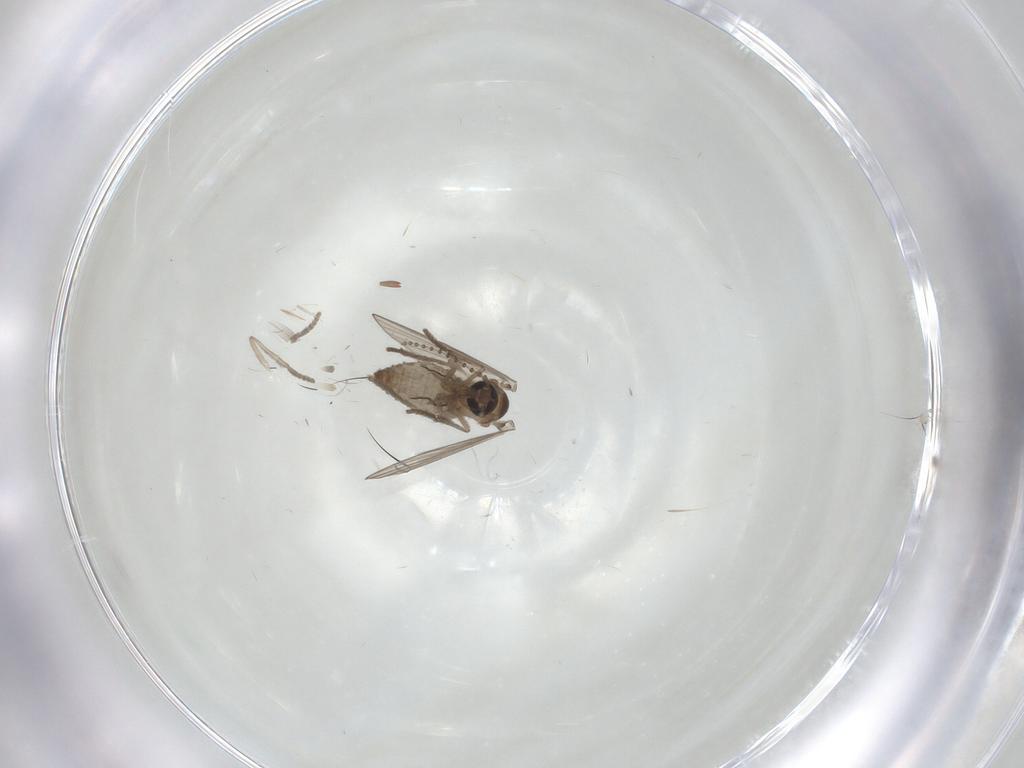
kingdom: Animalia
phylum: Arthropoda
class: Insecta
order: Diptera
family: Psychodidae
